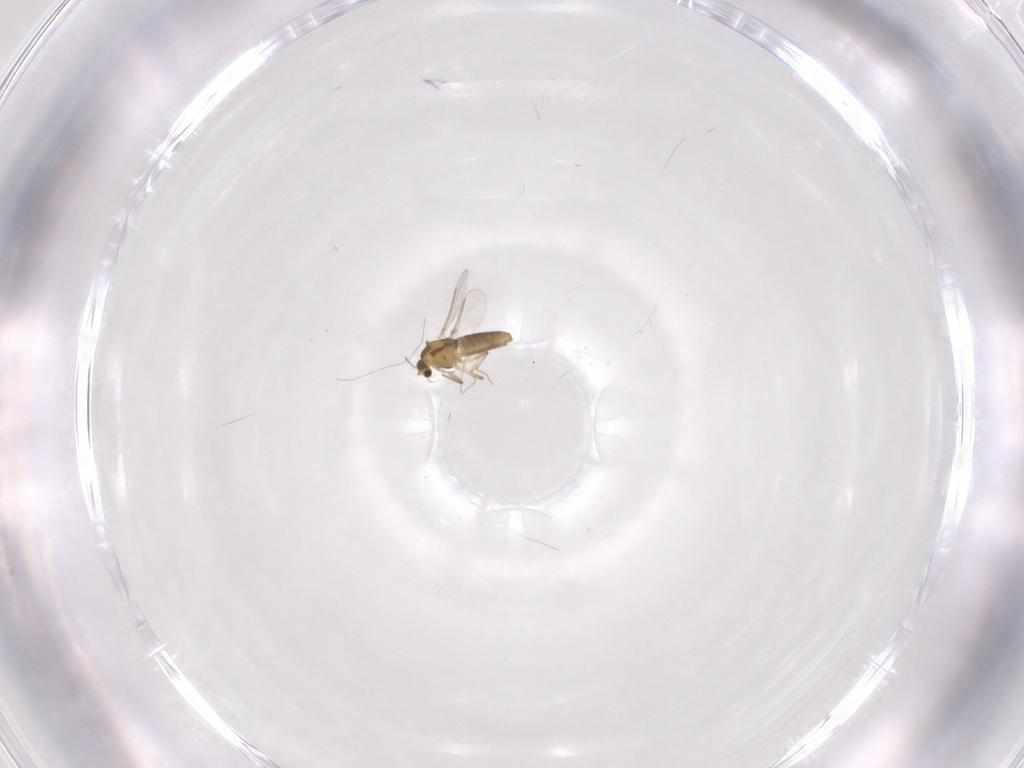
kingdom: Animalia
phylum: Arthropoda
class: Insecta
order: Diptera
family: Chironomidae
